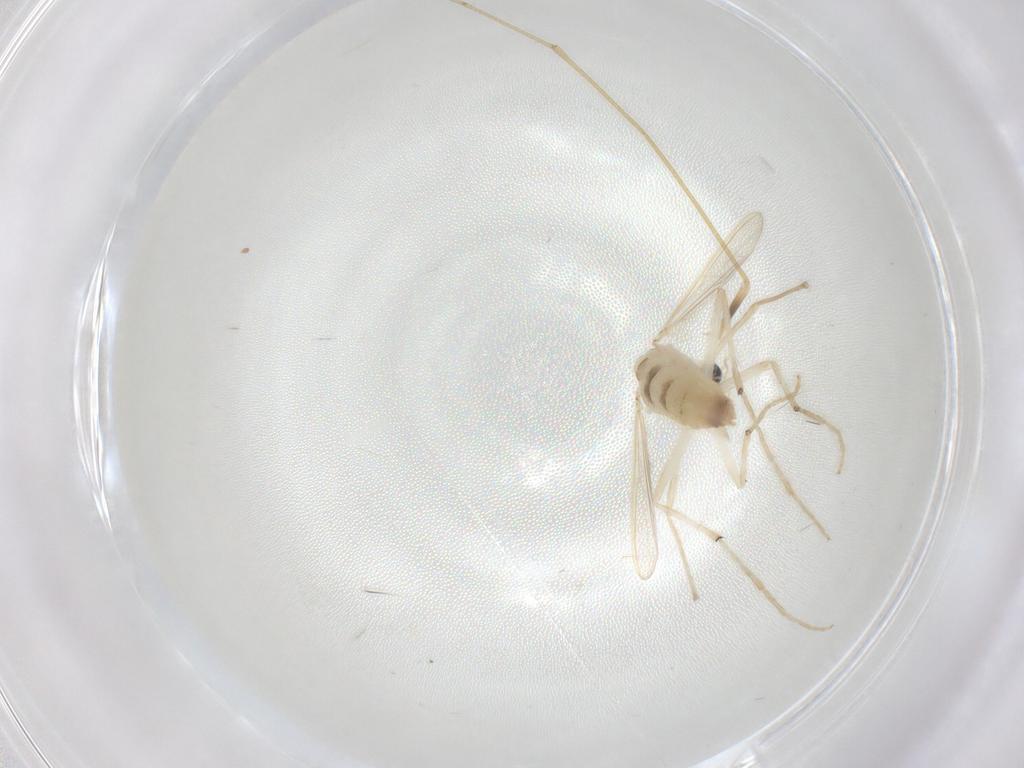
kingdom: Animalia
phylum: Arthropoda
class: Insecta
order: Diptera
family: Chironomidae
